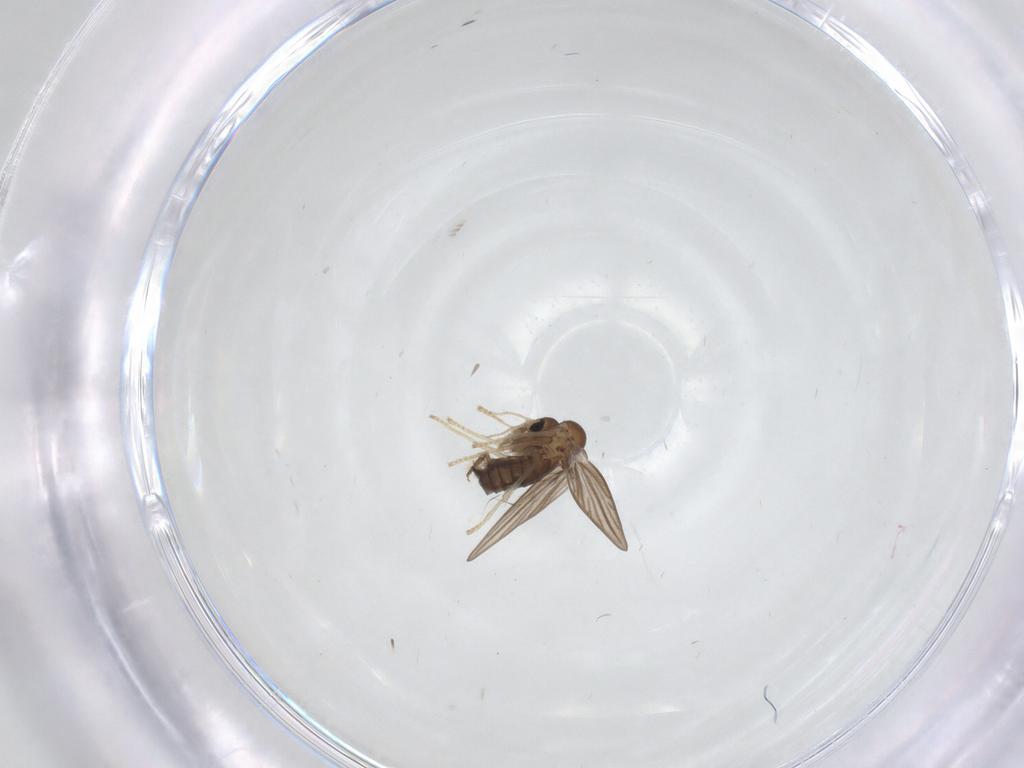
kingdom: Animalia
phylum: Arthropoda
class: Insecta
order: Diptera
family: Psychodidae
